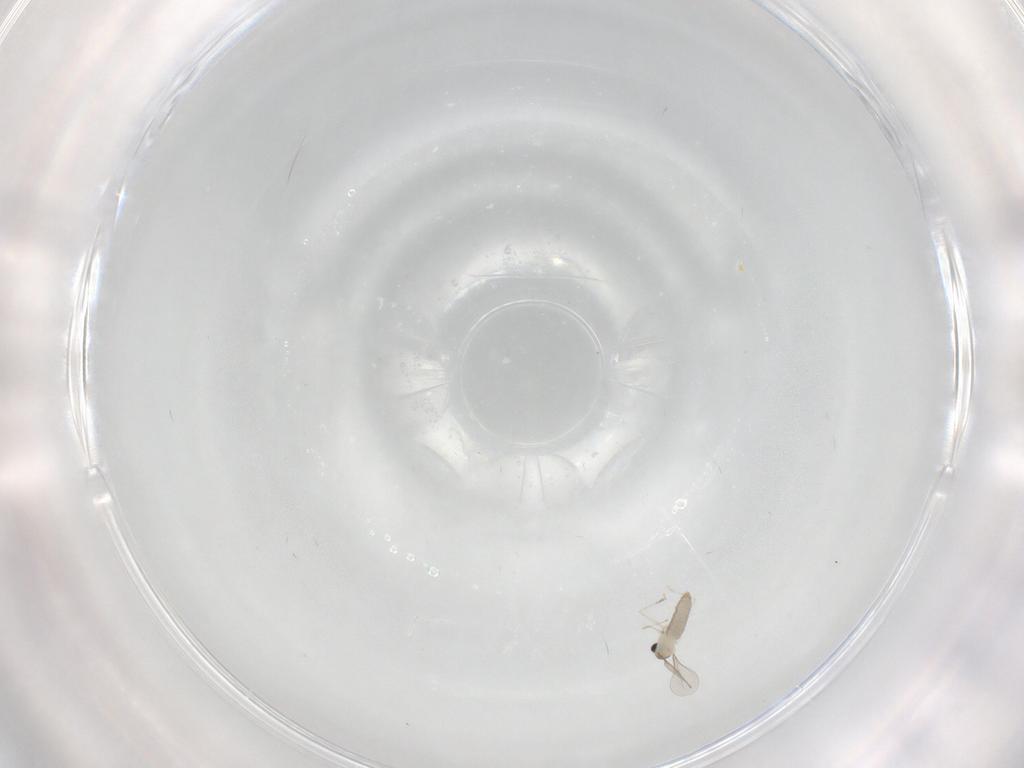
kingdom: Animalia
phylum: Arthropoda
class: Insecta
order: Diptera
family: Cecidomyiidae
